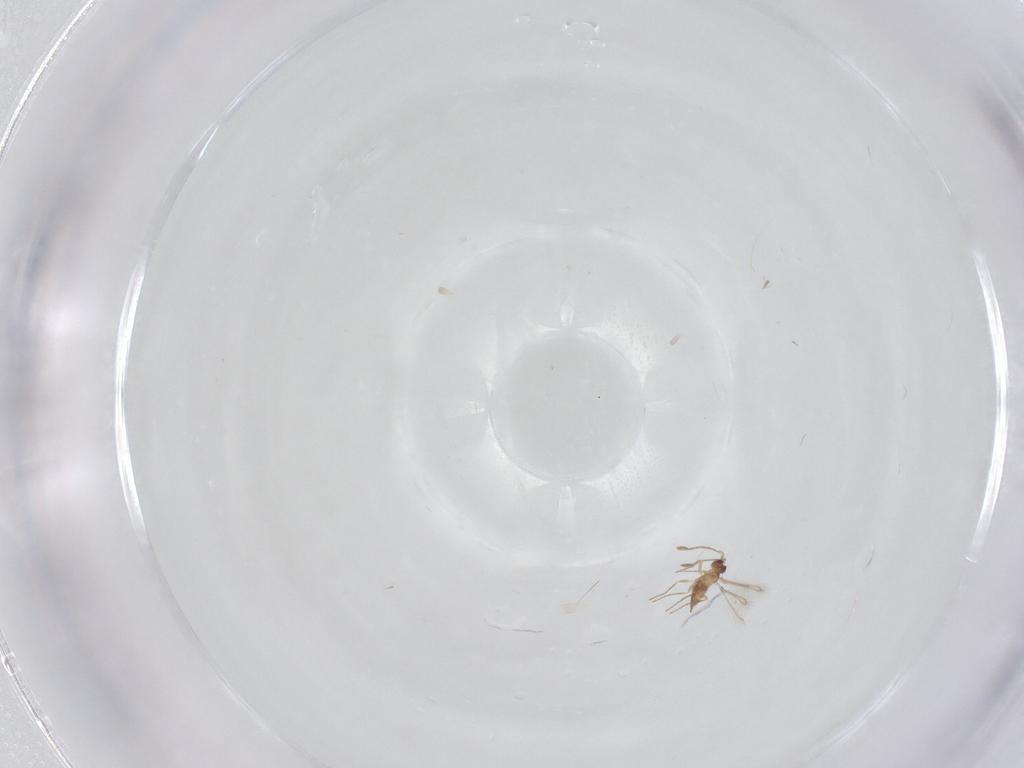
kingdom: Animalia
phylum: Arthropoda
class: Insecta
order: Hymenoptera
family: Mymaridae
